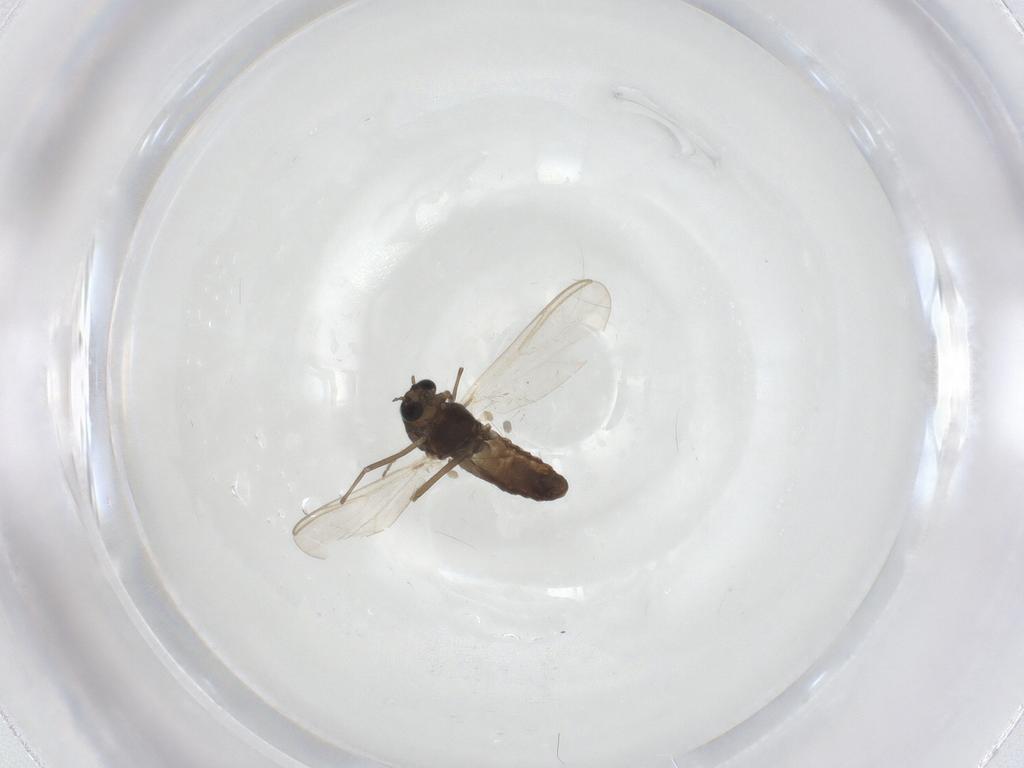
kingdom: Animalia
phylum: Arthropoda
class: Insecta
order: Diptera
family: Chironomidae
